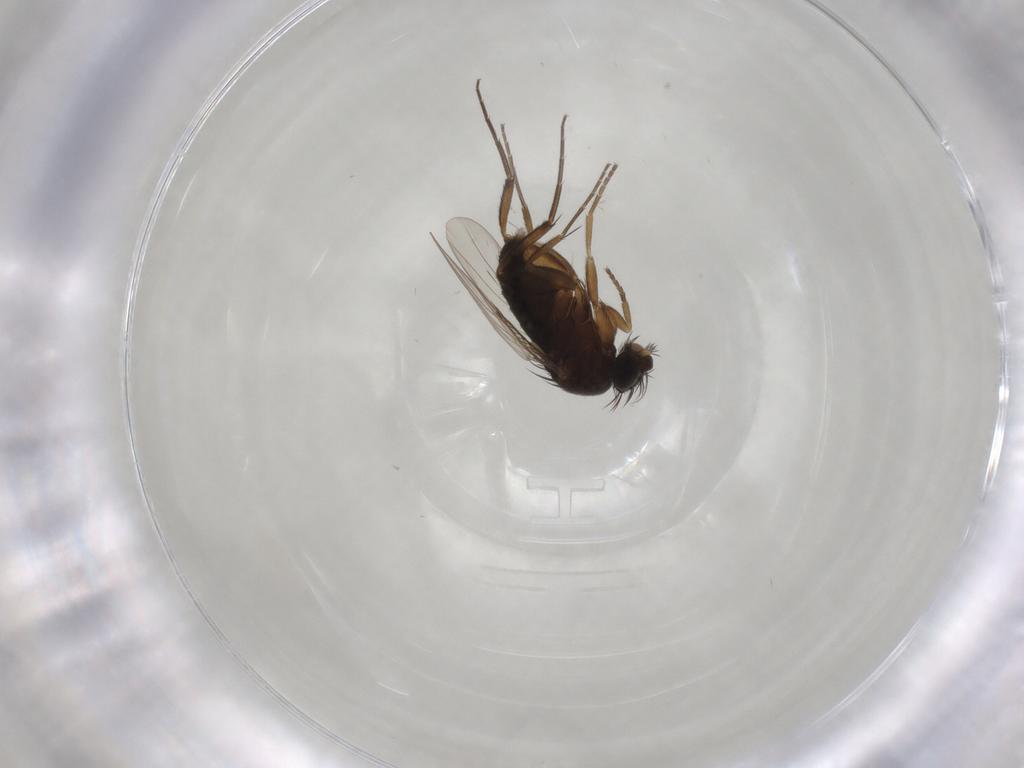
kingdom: Animalia
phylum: Arthropoda
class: Insecta
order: Diptera
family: Phoridae
